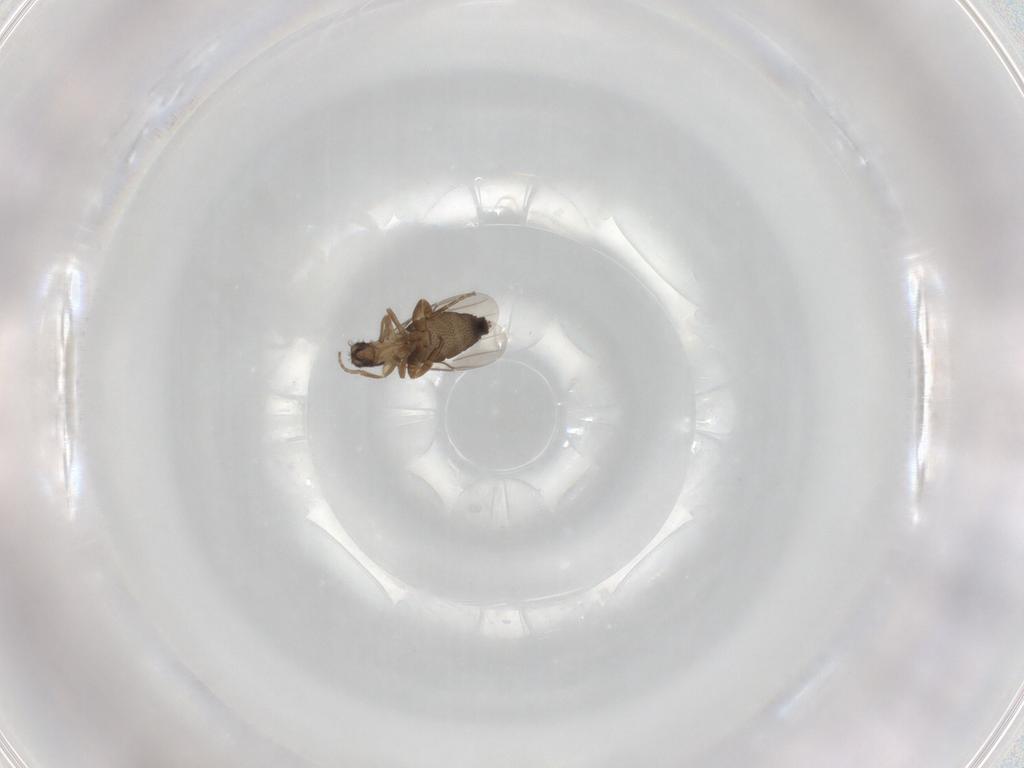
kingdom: Animalia
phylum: Arthropoda
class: Insecta
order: Diptera
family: Phoridae
